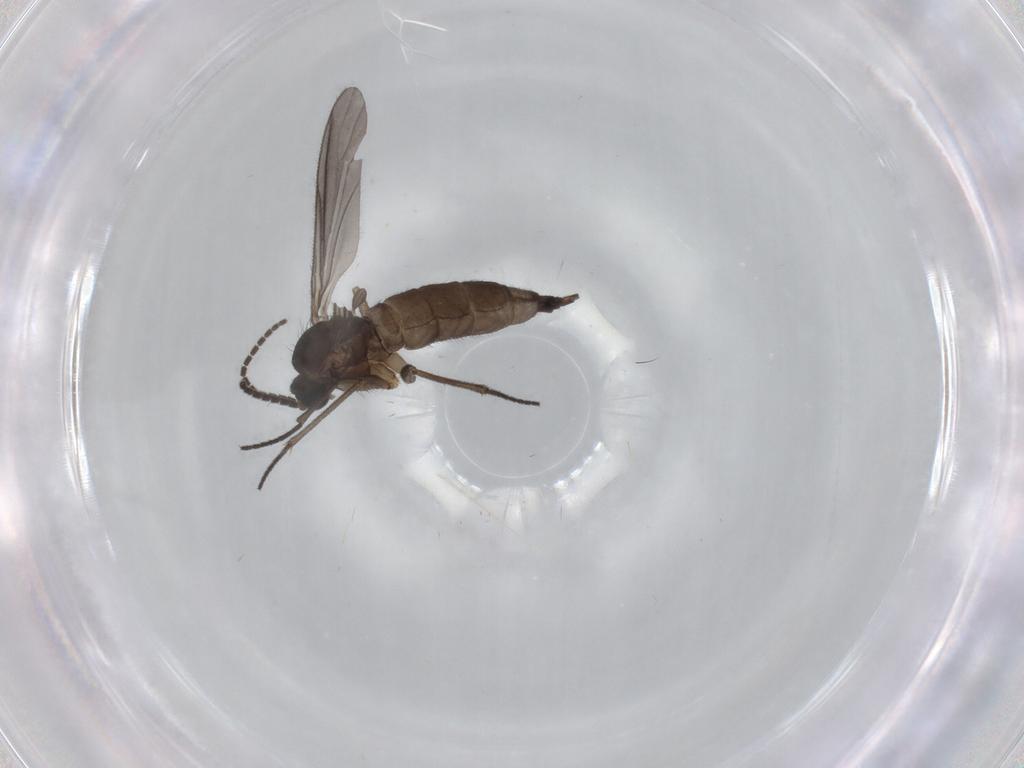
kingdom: Animalia
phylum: Arthropoda
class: Insecta
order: Diptera
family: Sciaridae
